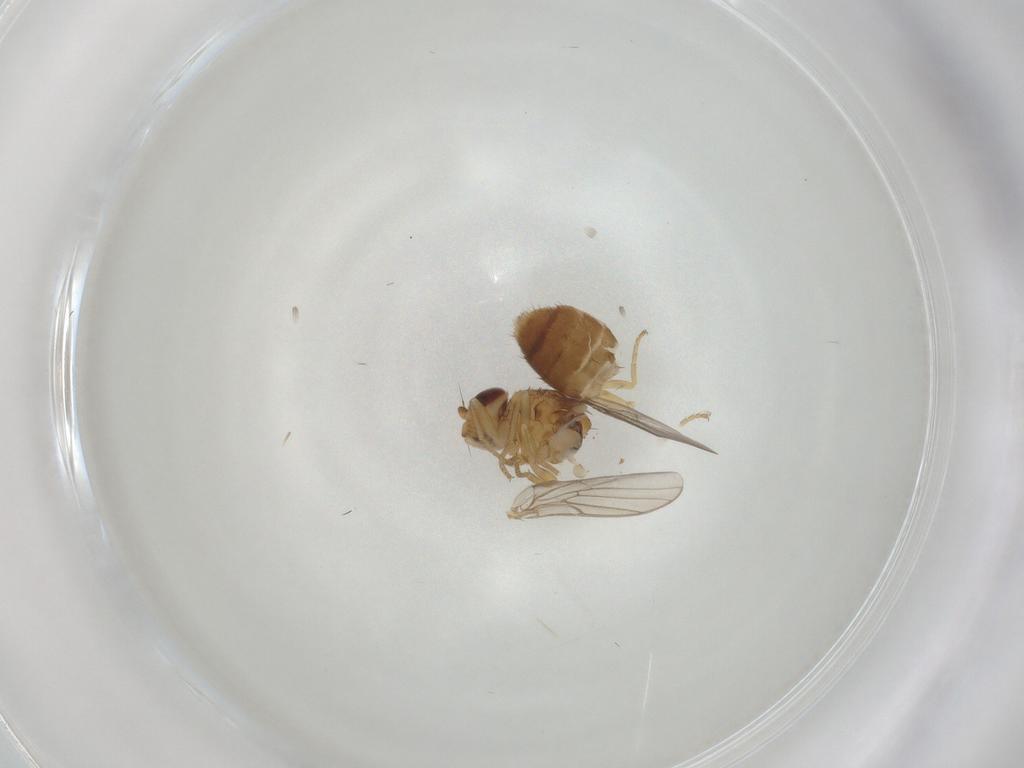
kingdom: Animalia
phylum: Arthropoda
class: Insecta
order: Diptera
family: Chloropidae
